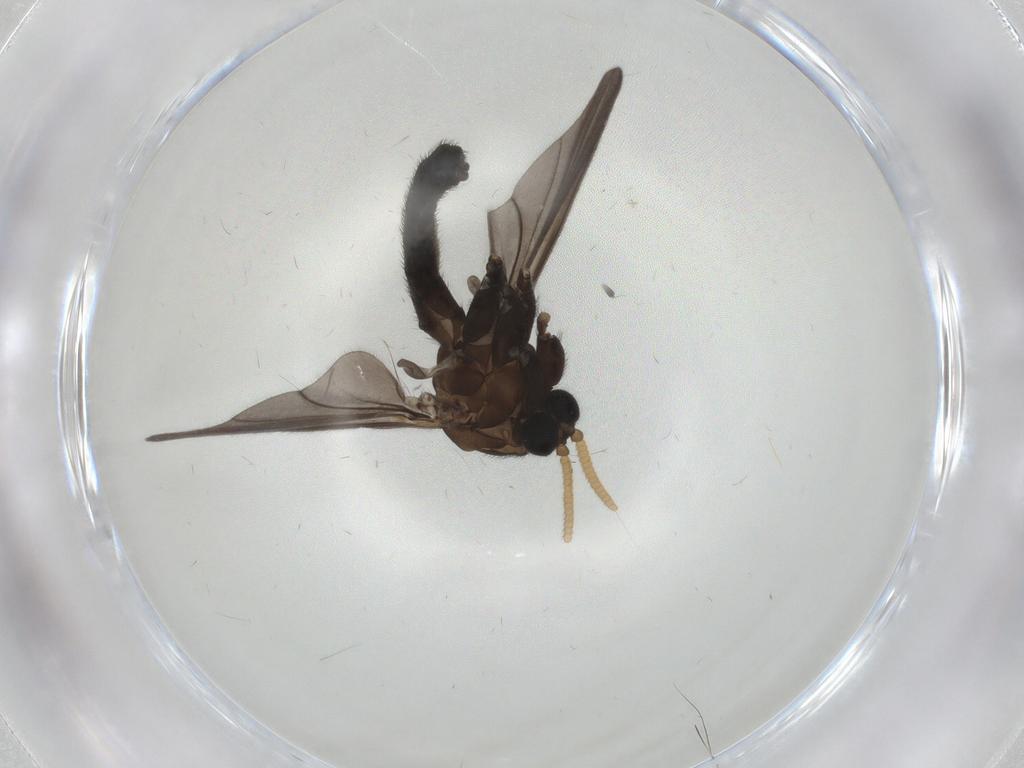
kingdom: Animalia
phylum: Arthropoda
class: Insecta
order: Diptera
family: Mycetophilidae
